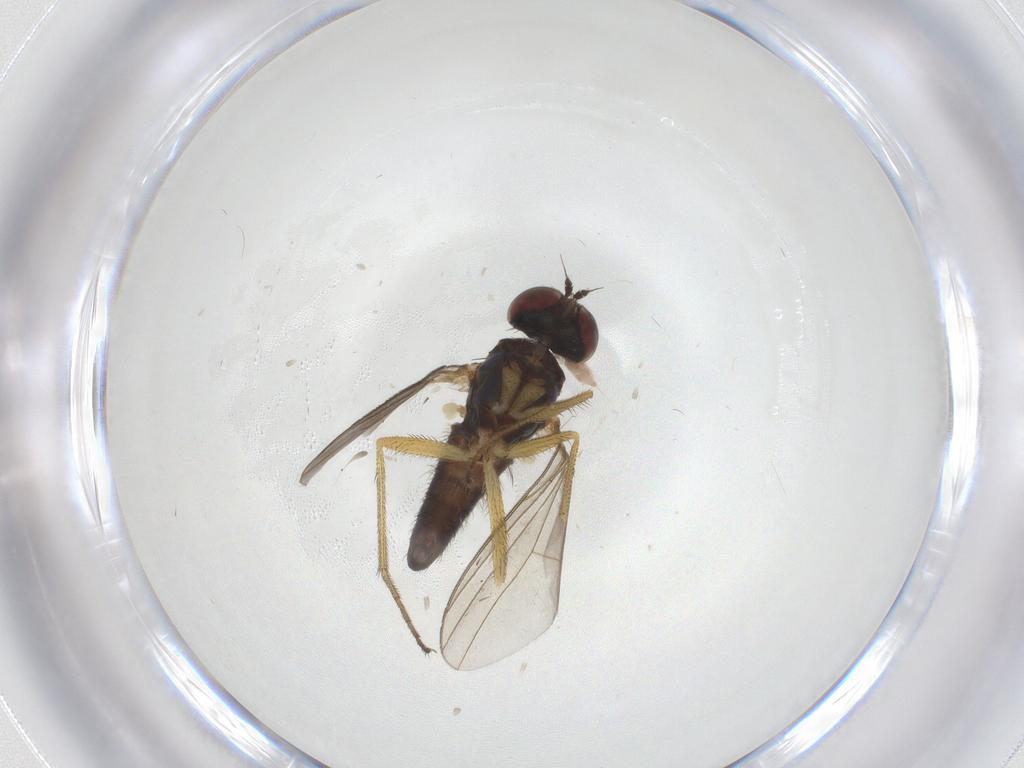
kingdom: Animalia
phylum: Arthropoda
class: Insecta
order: Diptera
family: Dolichopodidae
